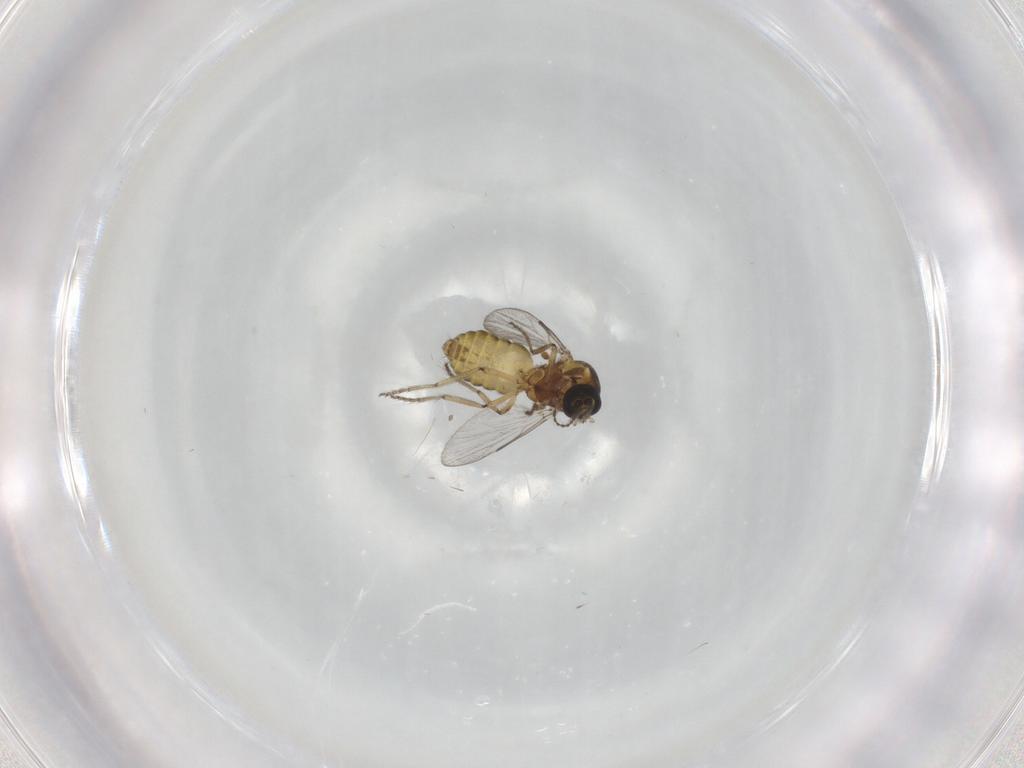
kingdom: Animalia
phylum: Arthropoda
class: Insecta
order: Diptera
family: Ceratopogonidae
